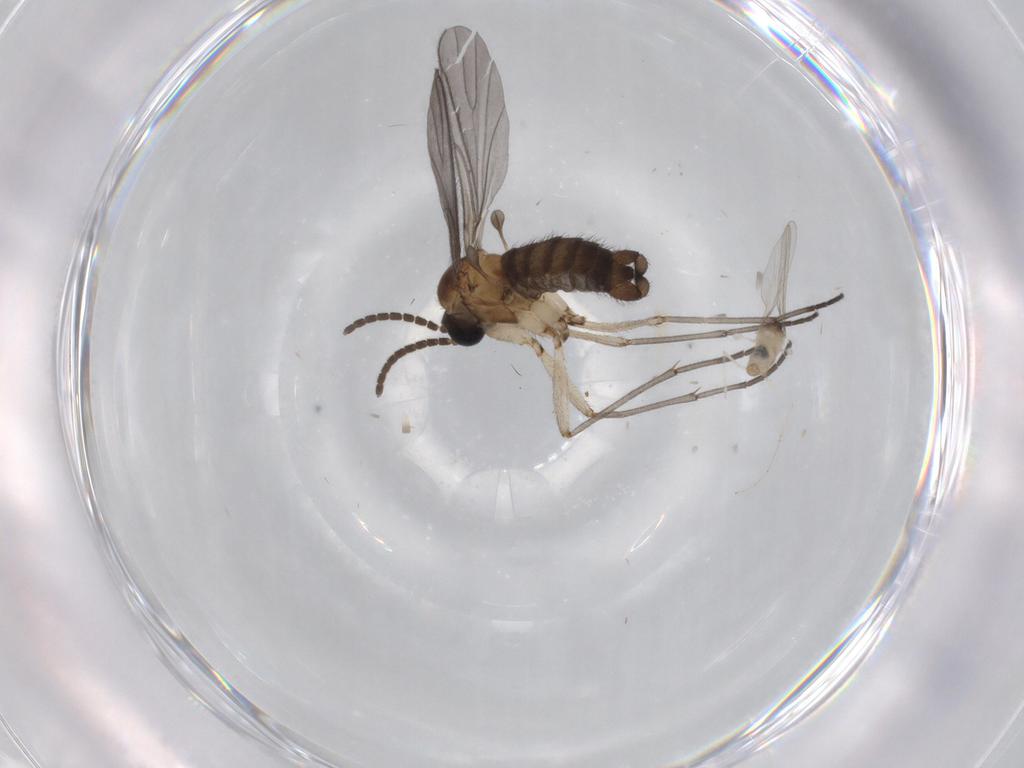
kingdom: Animalia
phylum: Arthropoda
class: Insecta
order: Diptera
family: Sciaridae
